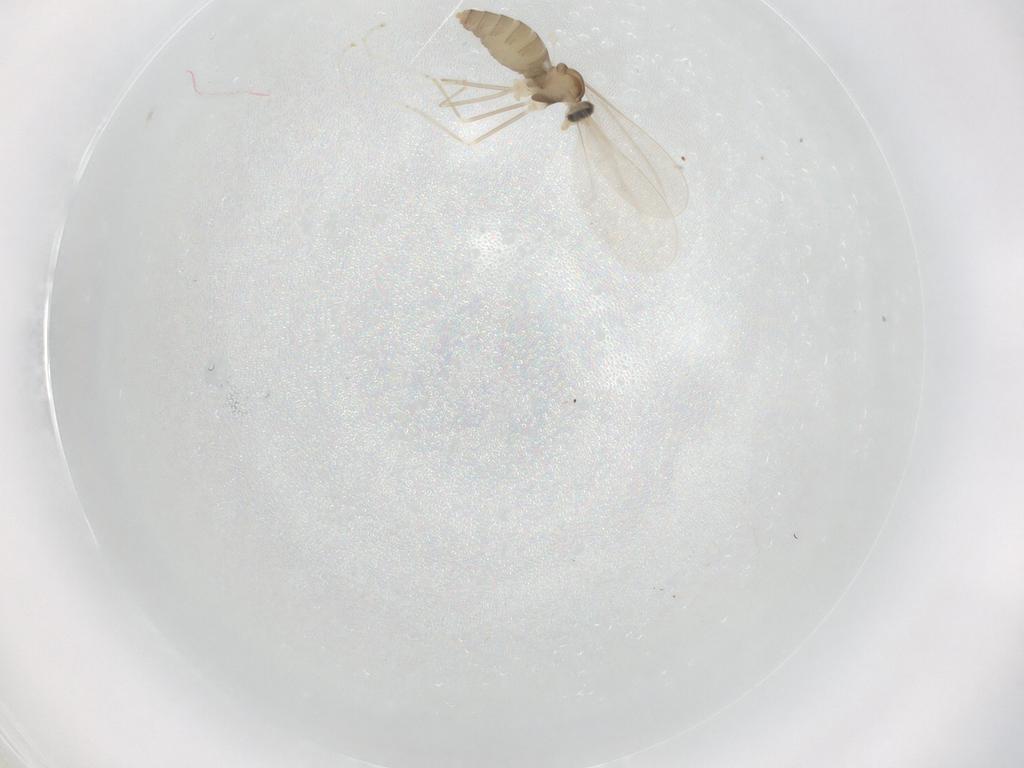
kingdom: Animalia
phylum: Arthropoda
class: Insecta
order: Diptera
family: Cecidomyiidae
